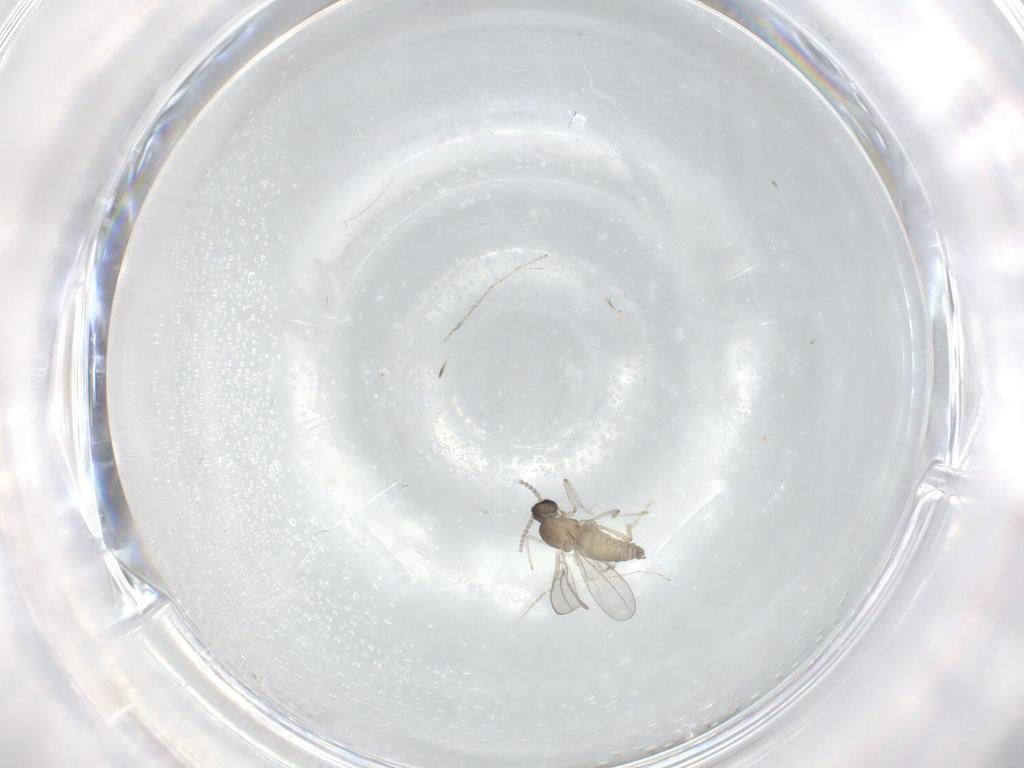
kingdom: Animalia
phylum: Arthropoda
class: Insecta
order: Diptera
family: Cecidomyiidae
